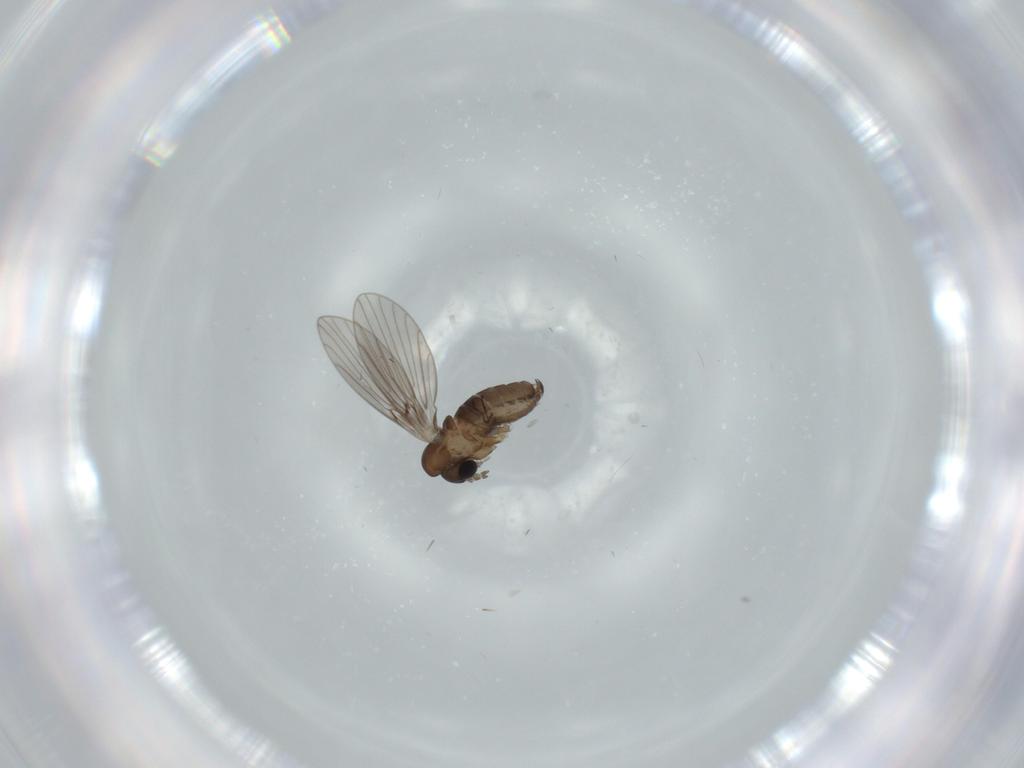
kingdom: Animalia
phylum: Arthropoda
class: Insecta
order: Diptera
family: Psychodidae
